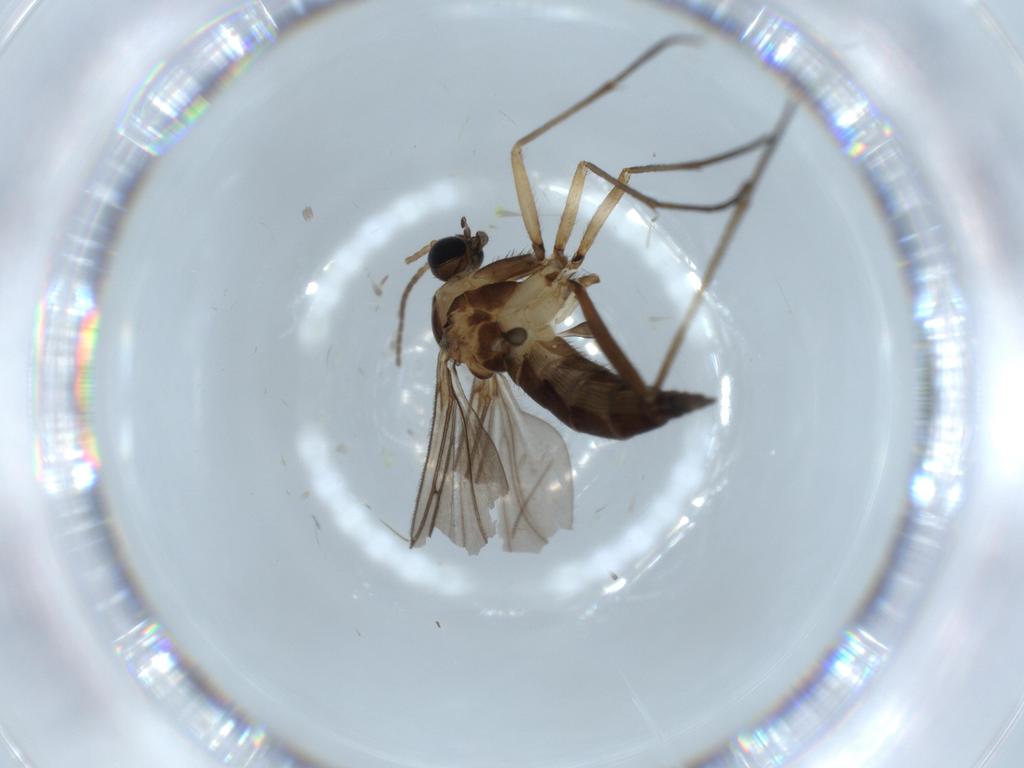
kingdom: Animalia
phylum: Arthropoda
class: Insecta
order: Diptera
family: Sciaridae
